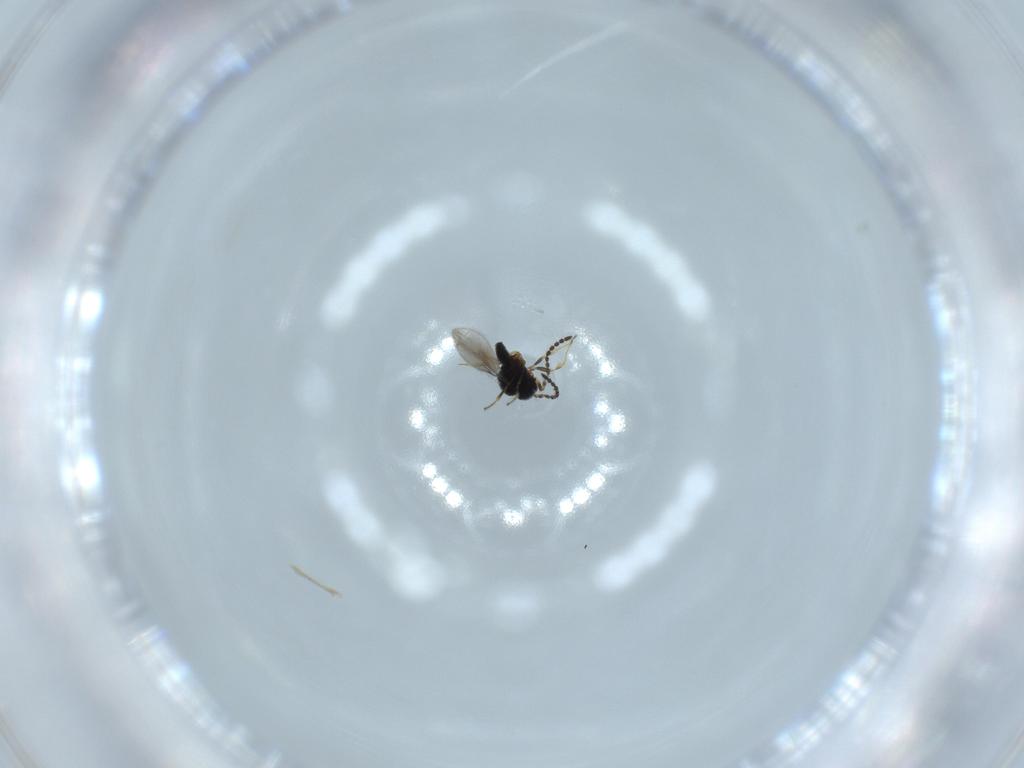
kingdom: Animalia
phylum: Arthropoda
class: Insecta
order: Hymenoptera
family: Scelionidae
